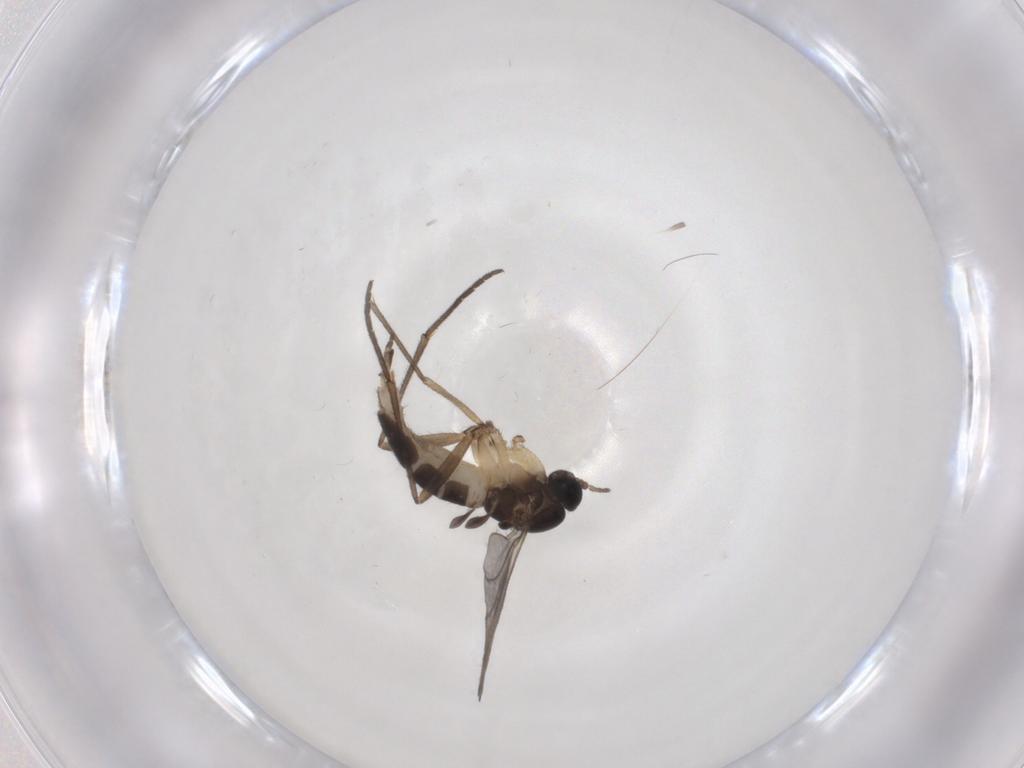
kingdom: Animalia
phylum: Arthropoda
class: Insecta
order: Diptera
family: Sciaridae
